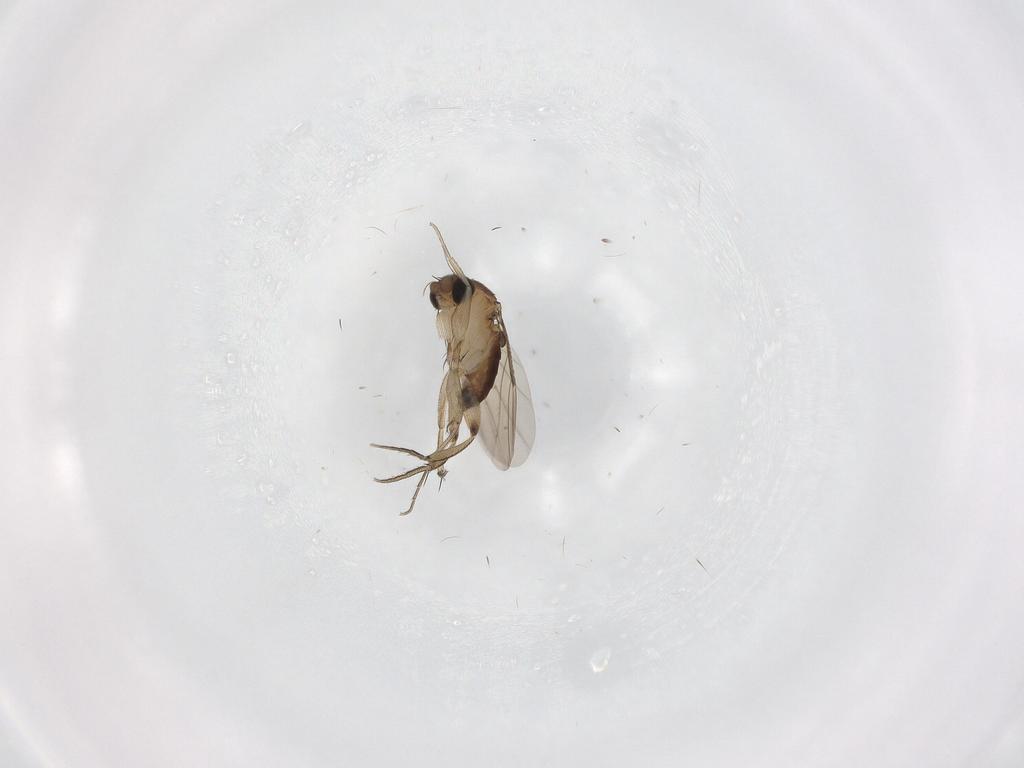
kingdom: Animalia
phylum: Arthropoda
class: Insecta
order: Diptera
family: Phoridae
